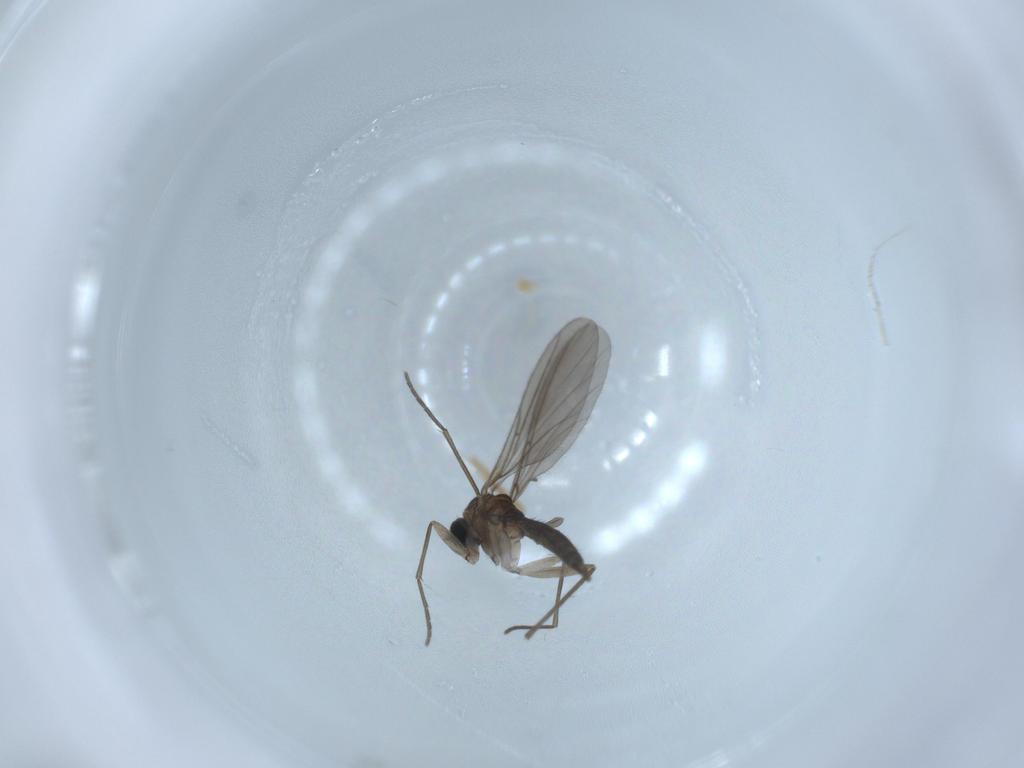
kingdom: Animalia
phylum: Arthropoda
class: Insecta
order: Diptera
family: Sciaridae
